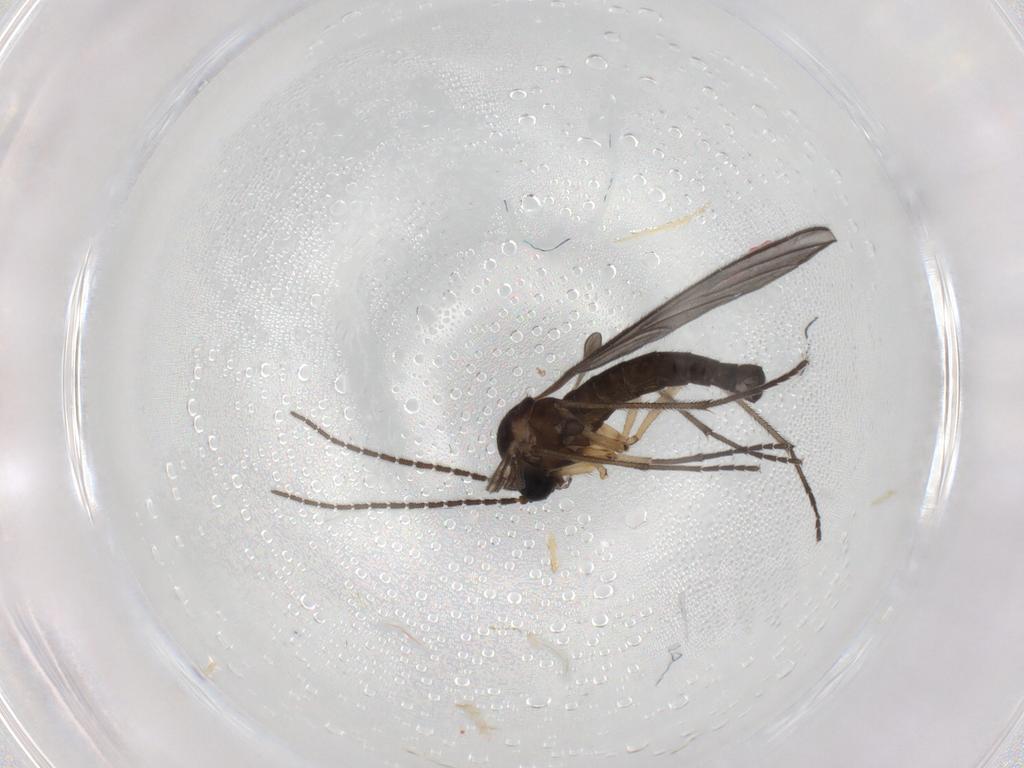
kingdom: Animalia
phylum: Arthropoda
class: Insecta
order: Diptera
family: Sciaridae
